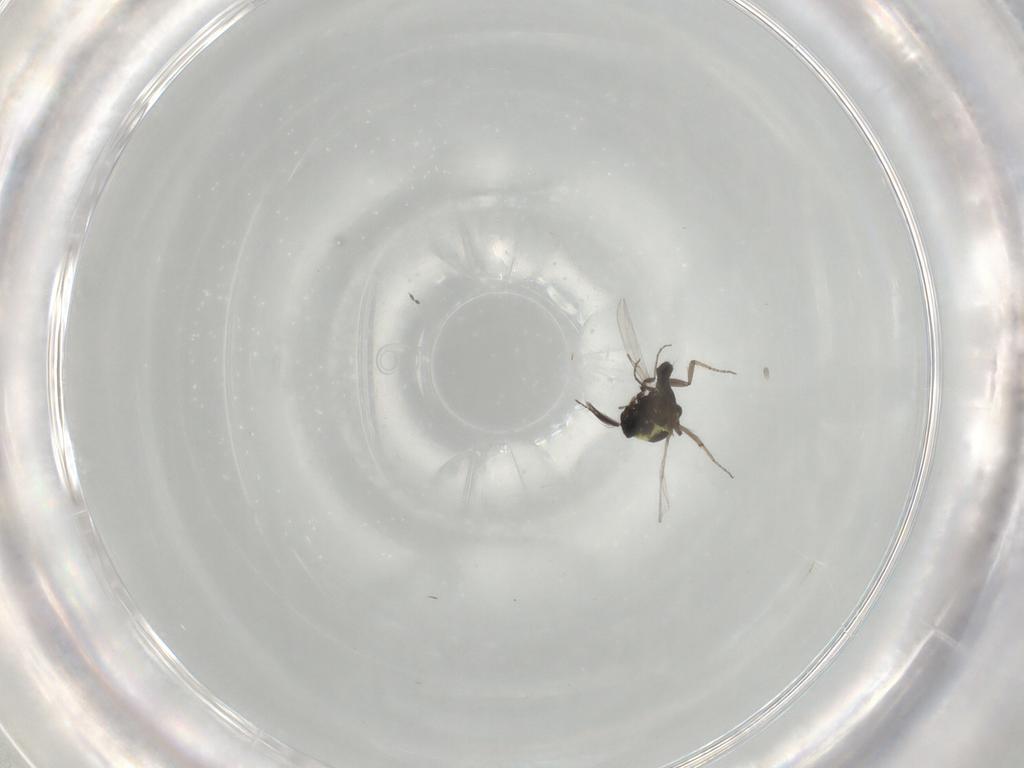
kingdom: Animalia
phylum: Arthropoda
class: Insecta
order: Diptera
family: Ceratopogonidae
